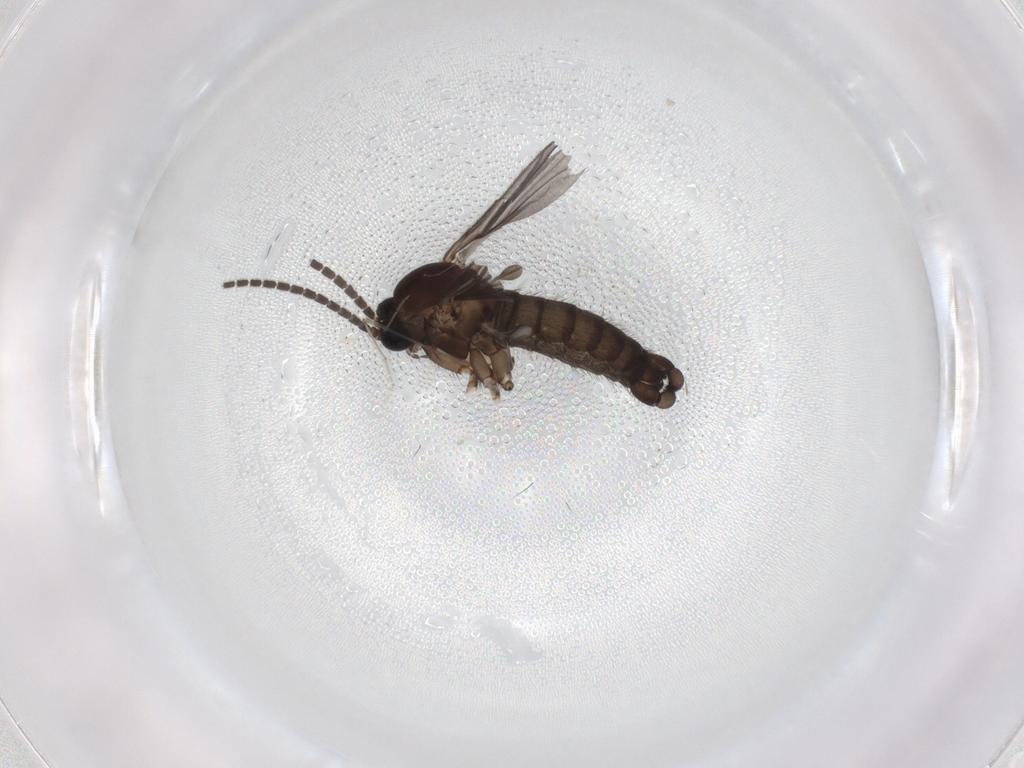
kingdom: Animalia
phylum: Arthropoda
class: Insecta
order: Diptera
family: Sciaridae
